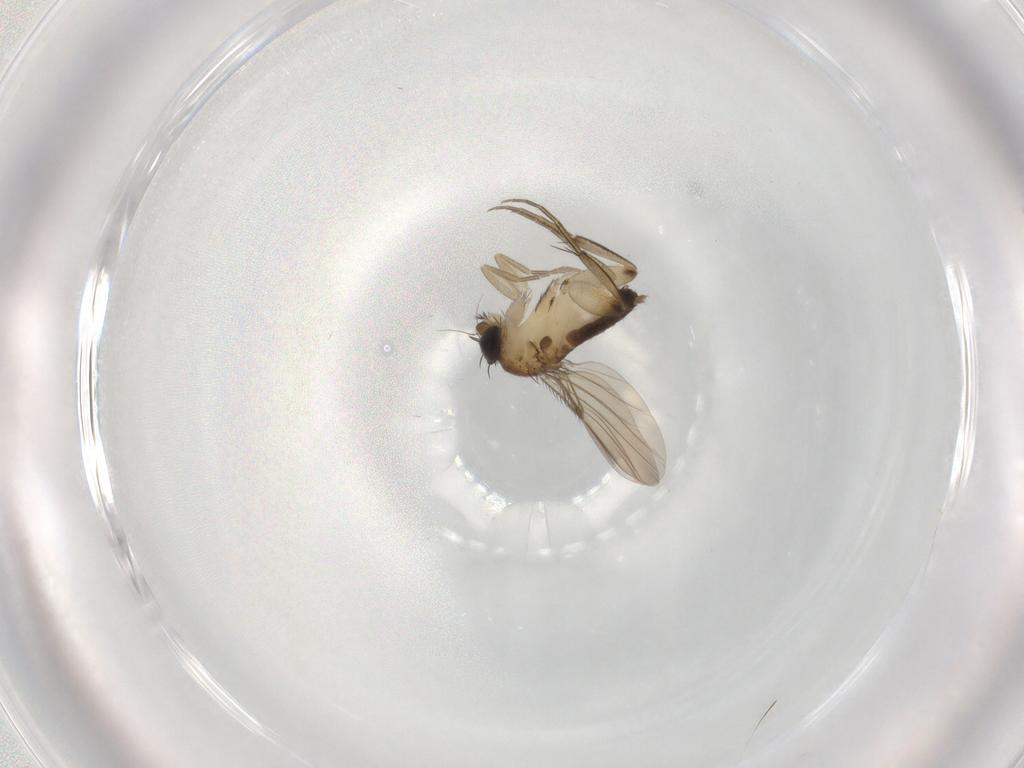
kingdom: Animalia
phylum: Arthropoda
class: Insecta
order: Diptera
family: Phoridae
